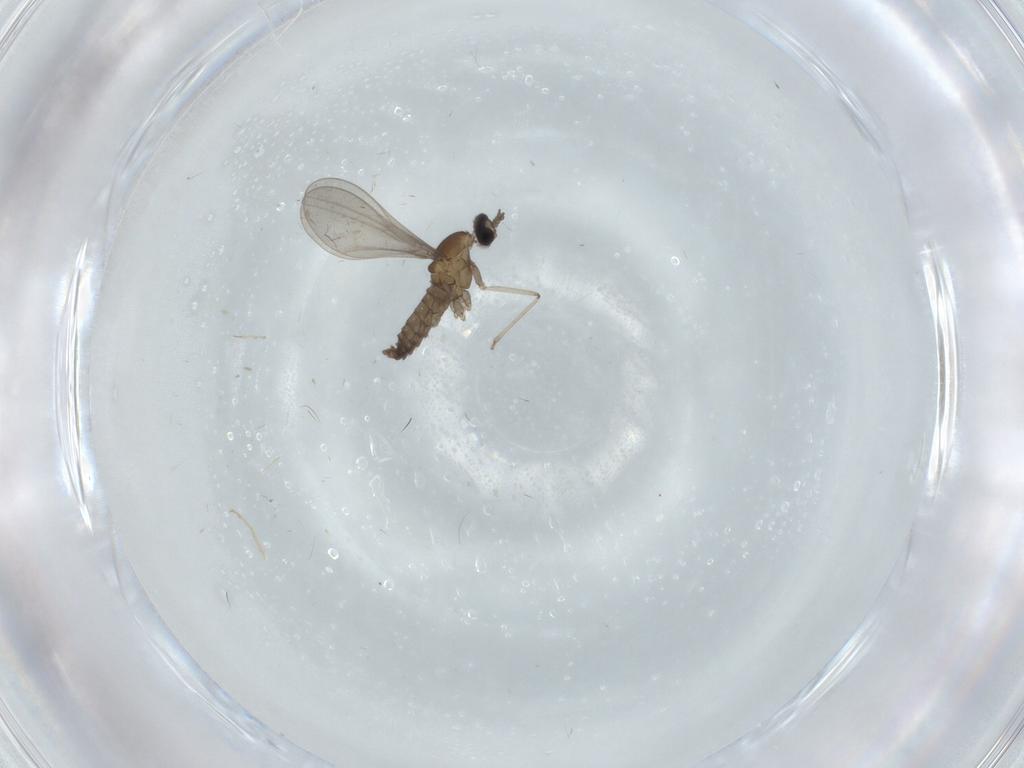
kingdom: Animalia
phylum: Arthropoda
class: Insecta
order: Diptera
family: Cecidomyiidae
